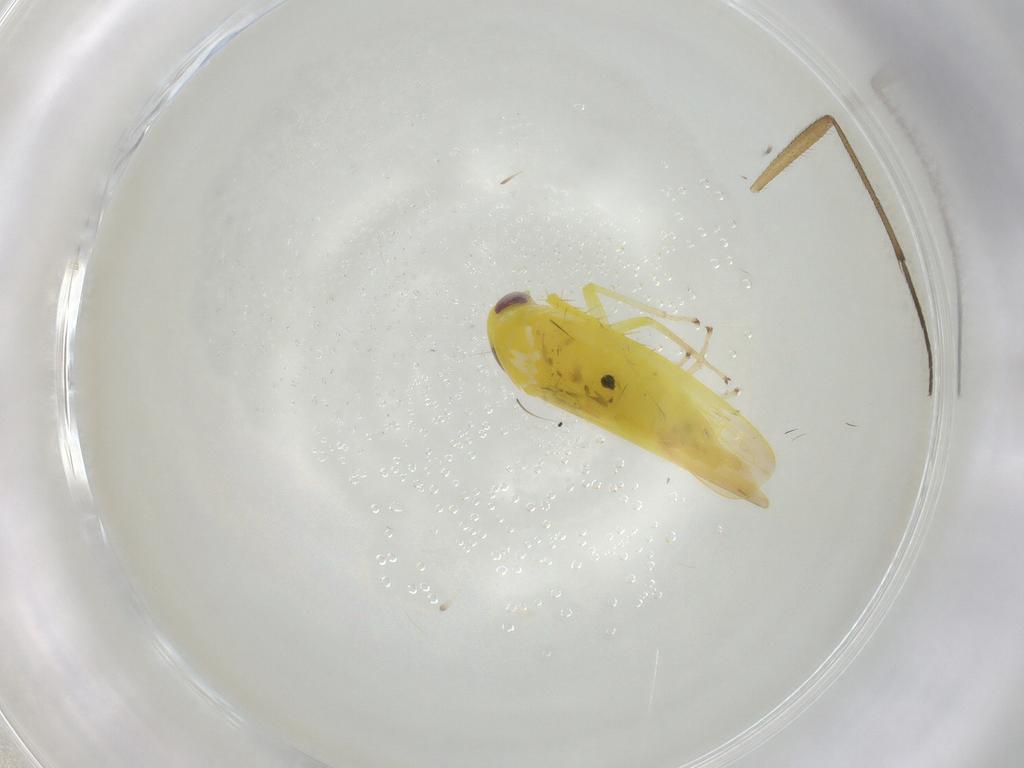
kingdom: Animalia
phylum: Arthropoda
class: Insecta
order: Hemiptera
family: Cicadellidae
